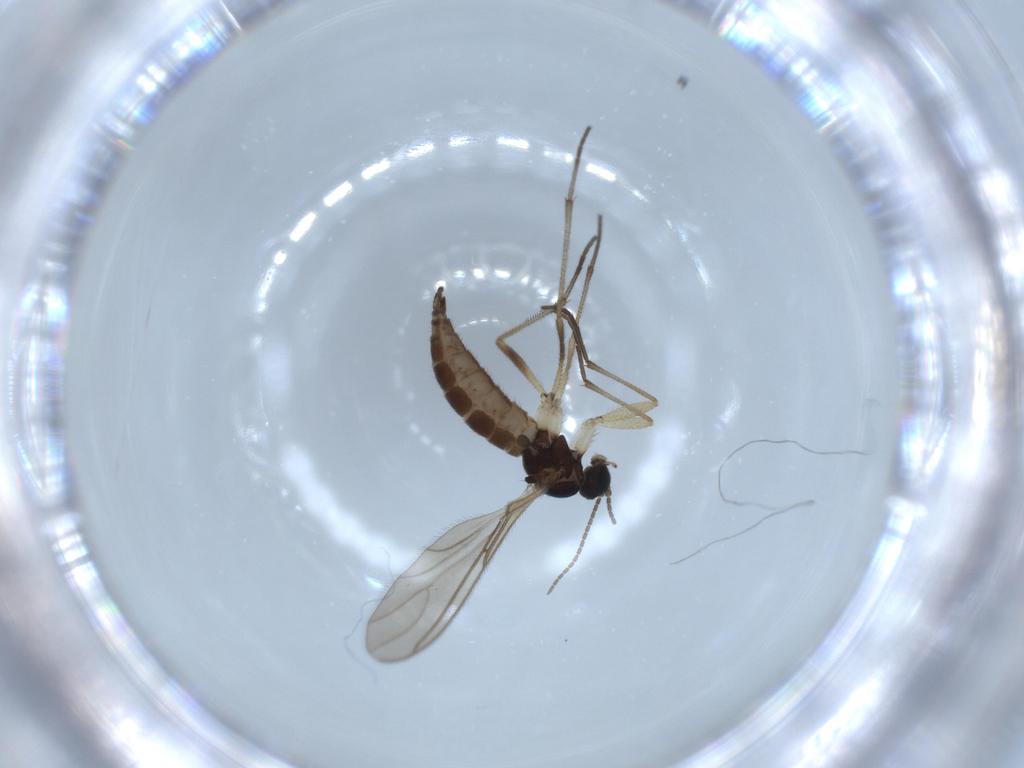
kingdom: Animalia
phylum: Arthropoda
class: Insecta
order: Diptera
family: Sciaridae
